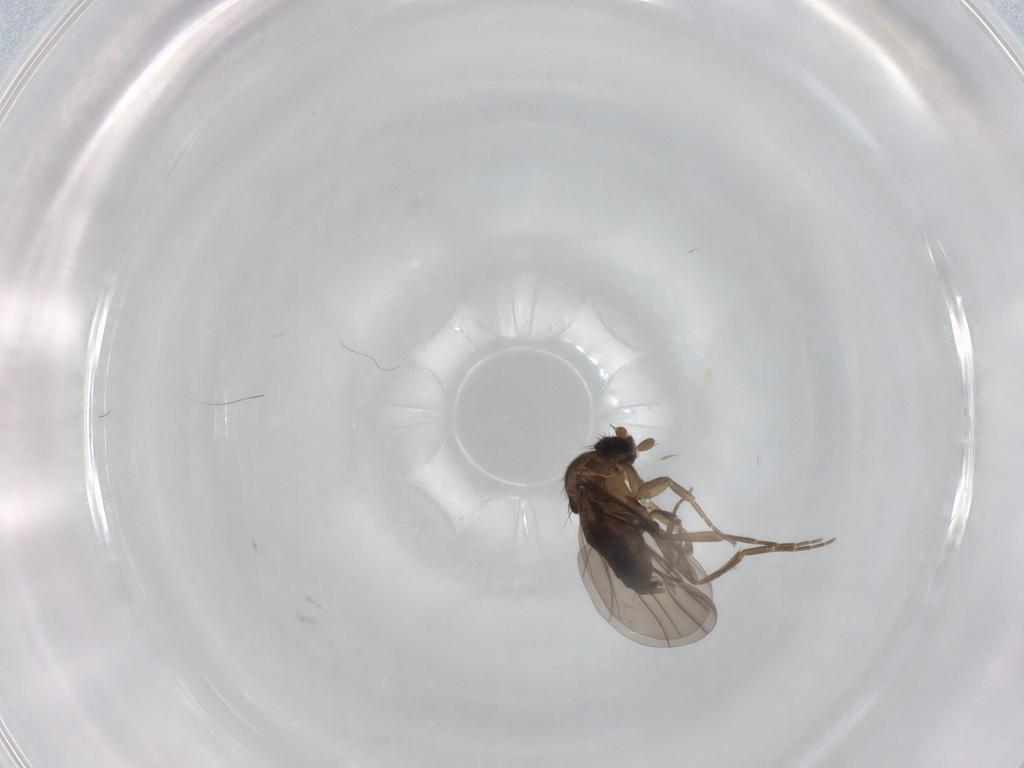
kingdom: Animalia
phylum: Arthropoda
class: Insecta
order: Diptera
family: Phoridae
